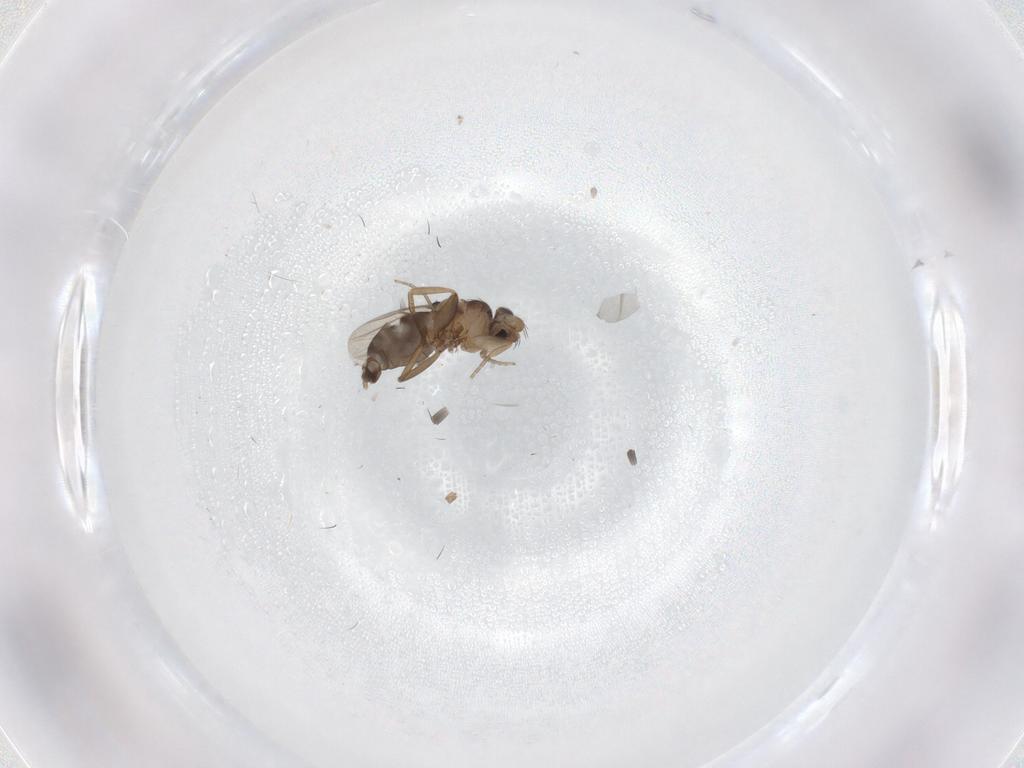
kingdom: Animalia
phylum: Arthropoda
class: Insecta
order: Diptera
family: Phoridae
